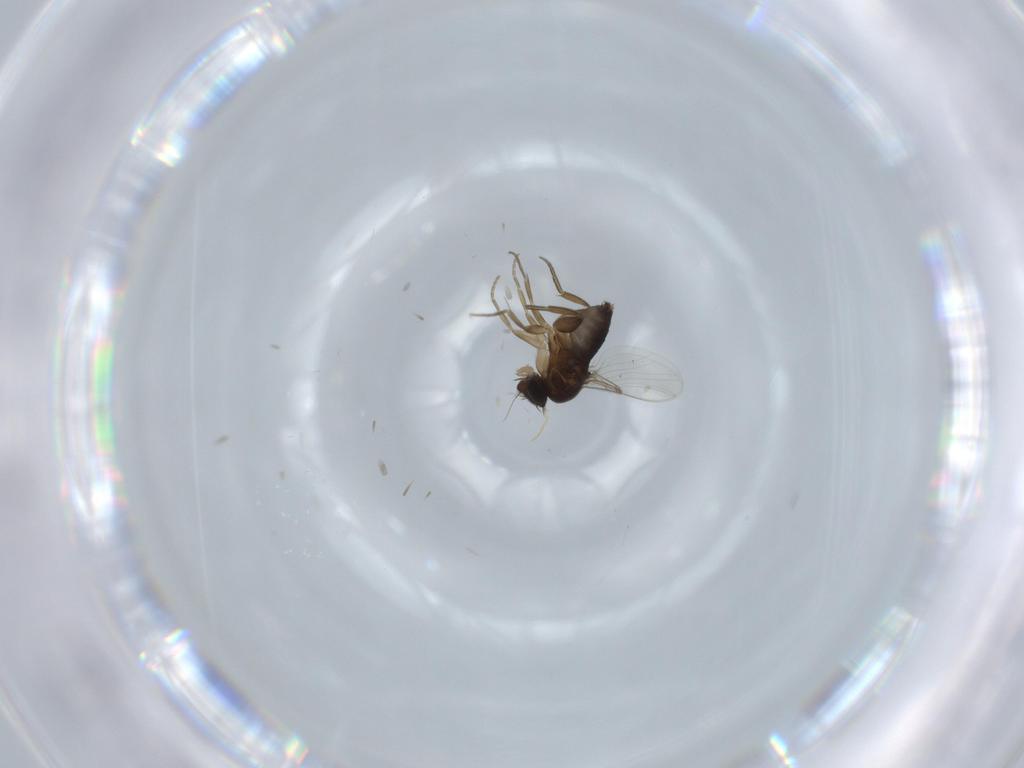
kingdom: Animalia
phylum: Arthropoda
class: Insecta
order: Diptera
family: Phoridae
